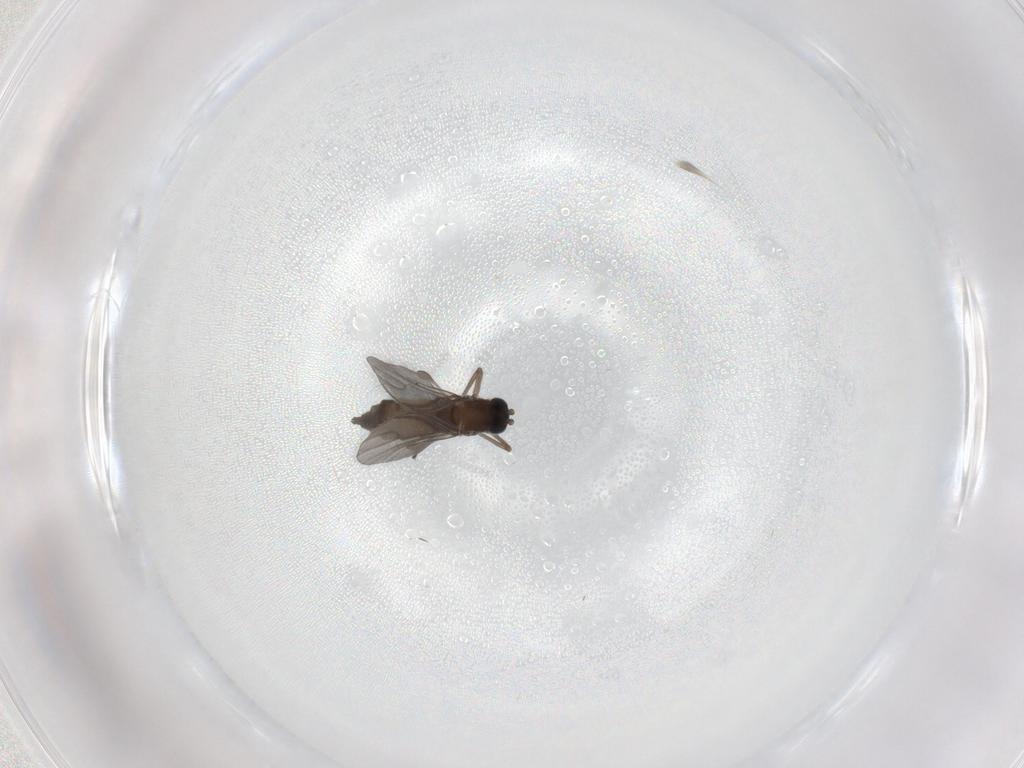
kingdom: Animalia
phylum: Arthropoda
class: Insecta
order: Diptera
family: Sciaridae
